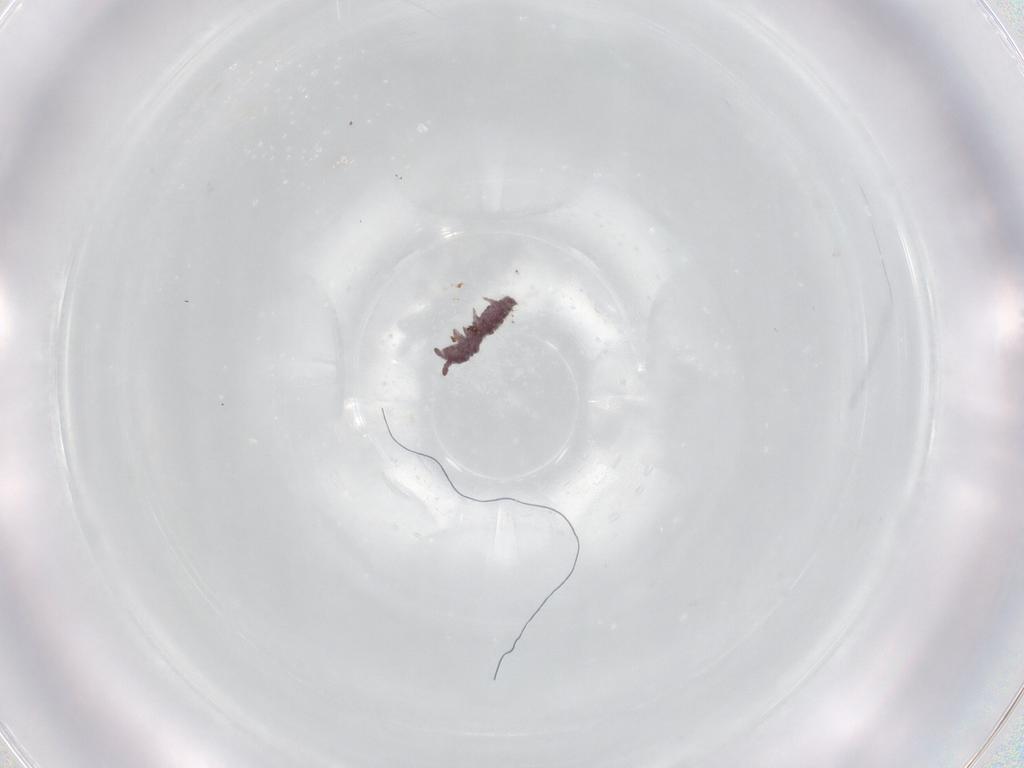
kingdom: Animalia
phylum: Arthropoda
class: Collembola
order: Poduromorpha
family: Hypogastruridae
